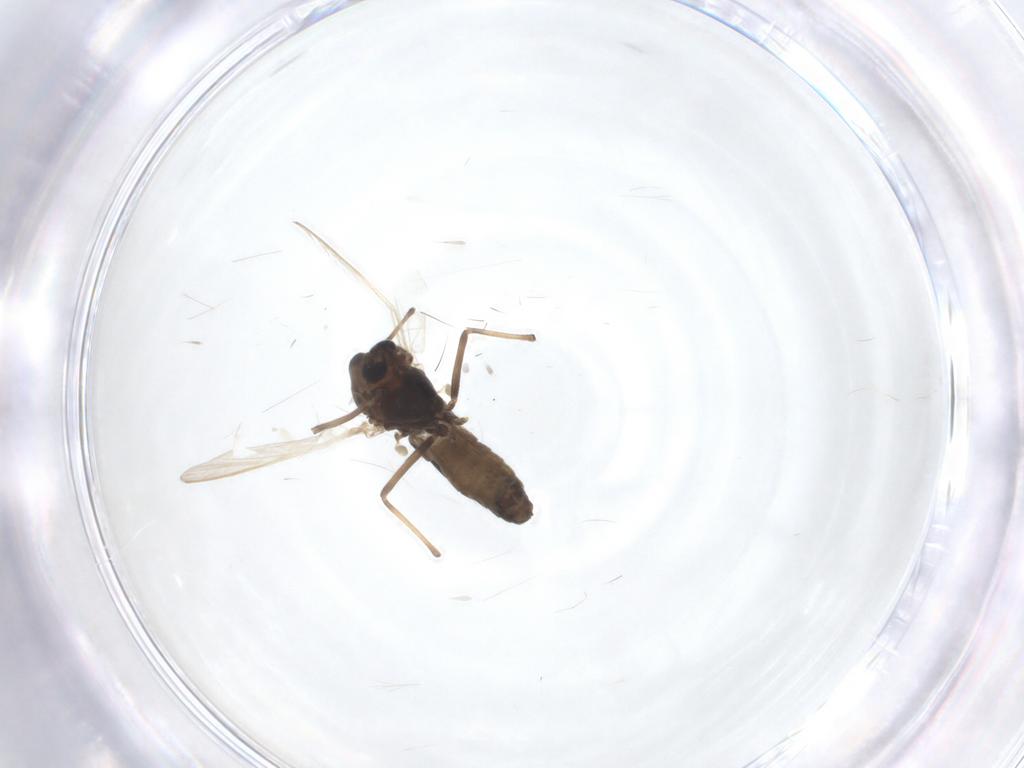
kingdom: Animalia
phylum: Arthropoda
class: Insecta
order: Diptera
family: Chironomidae
